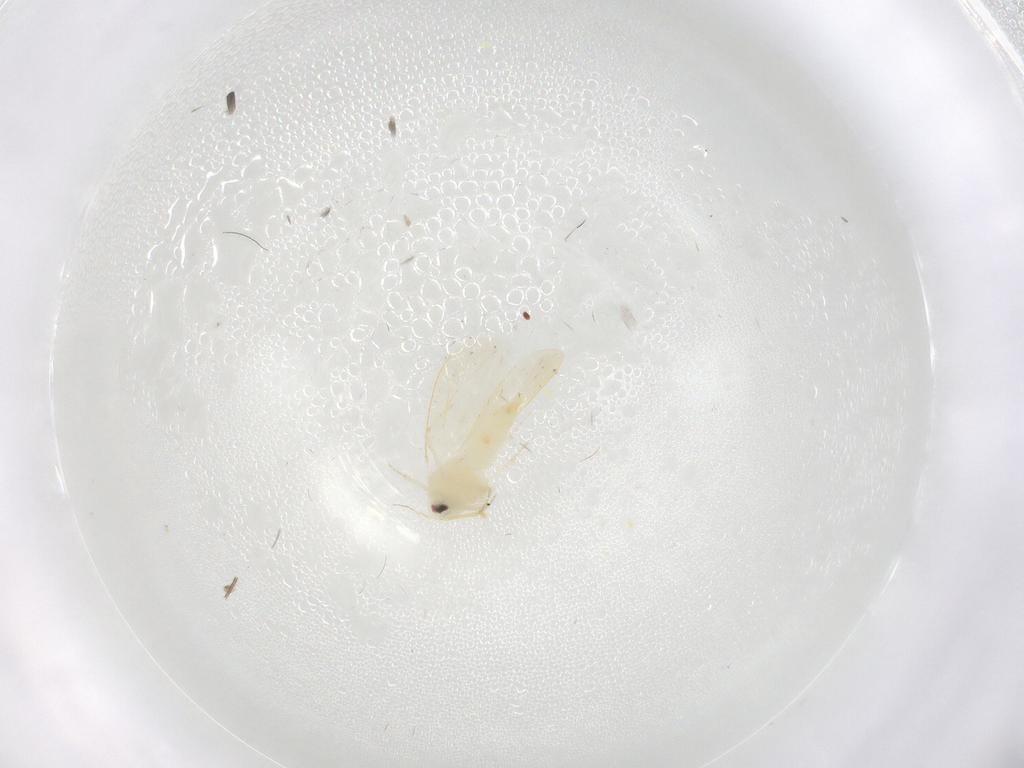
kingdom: Animalia
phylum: Arthropoda
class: Insecta
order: Hemiptera
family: Aleyrodidae
